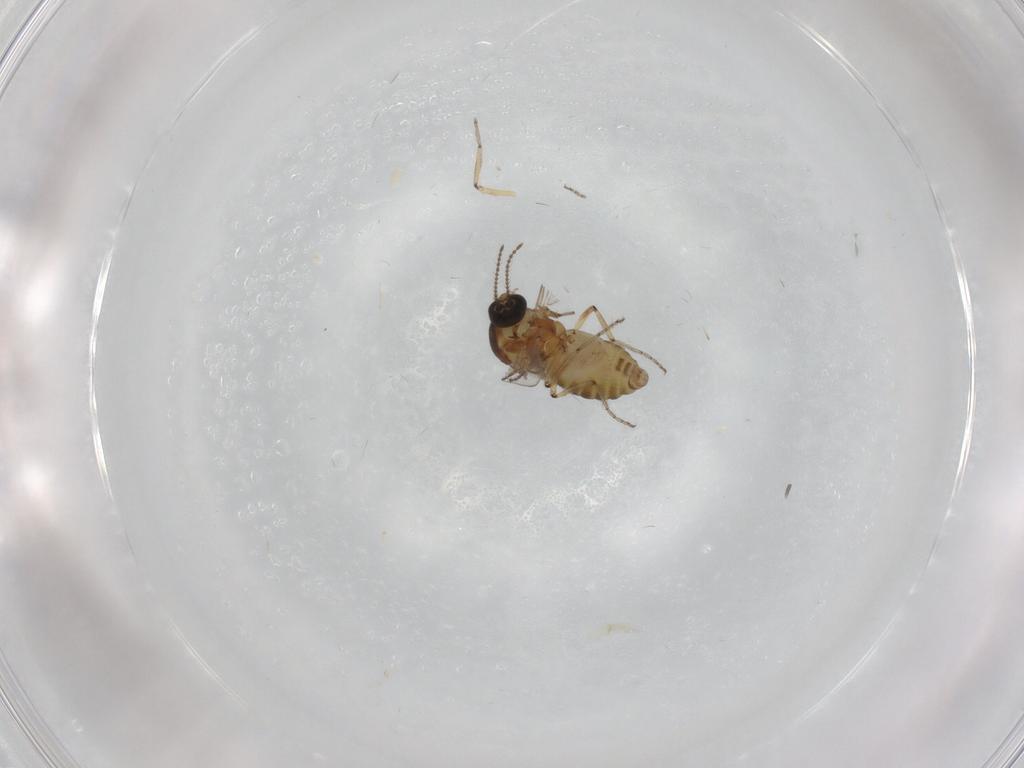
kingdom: Animalia
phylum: Arthropoda
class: Insecta
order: Diptera
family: Ceratopogonidae
